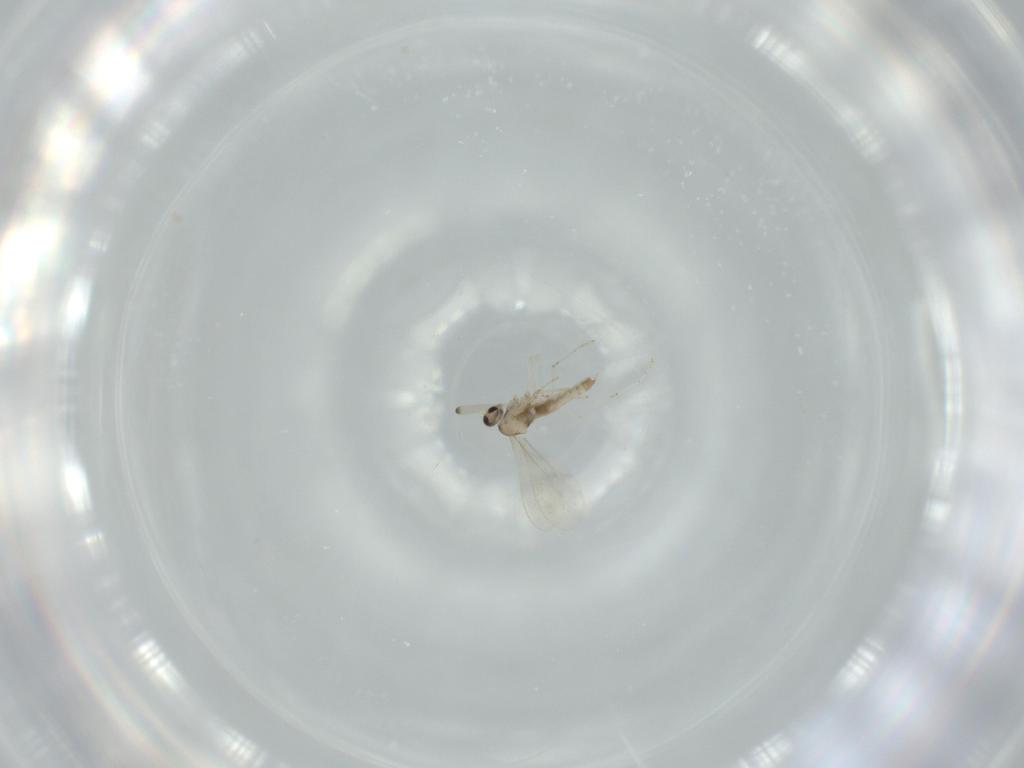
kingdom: Animalia
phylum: Arthropoda
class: Insecta
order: Diptera
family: Cecidomyiidae
